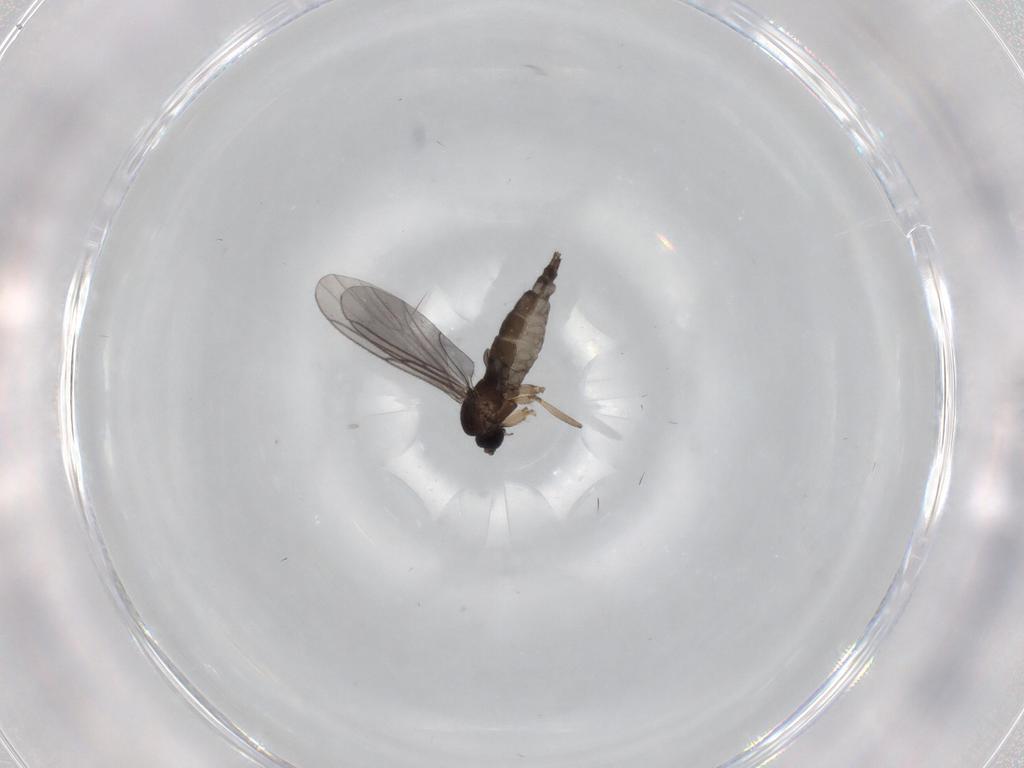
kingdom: Animalia
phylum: Arthropoda
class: Insecta
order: Diptera
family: Sciaridae
